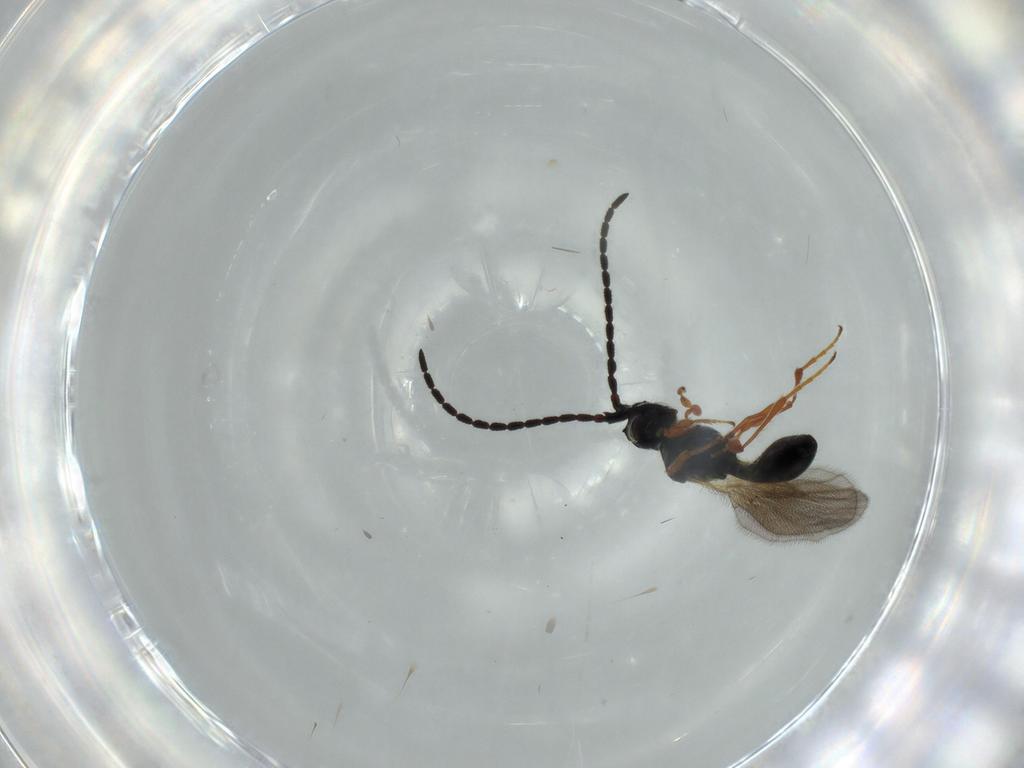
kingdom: Animalia
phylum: Arthropoda
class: Insecta
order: Hymenoptera
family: Diapriidae
